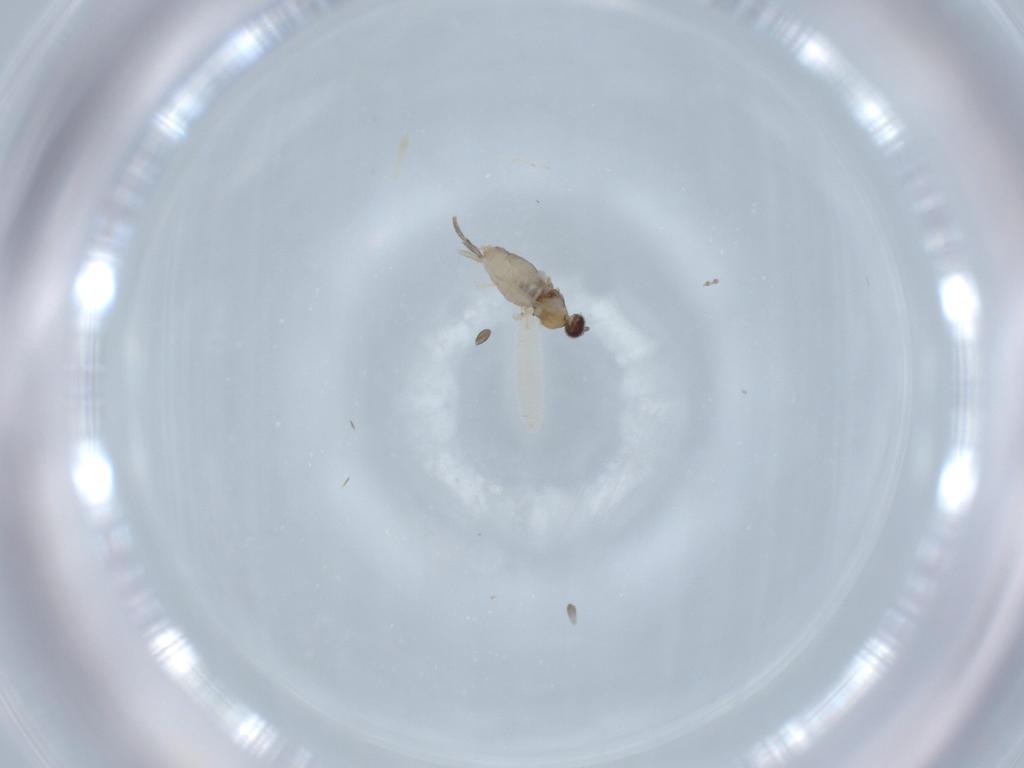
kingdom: Animalia
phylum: Arthropoda
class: Insecta
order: Diptera
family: Cecidomyiidae
